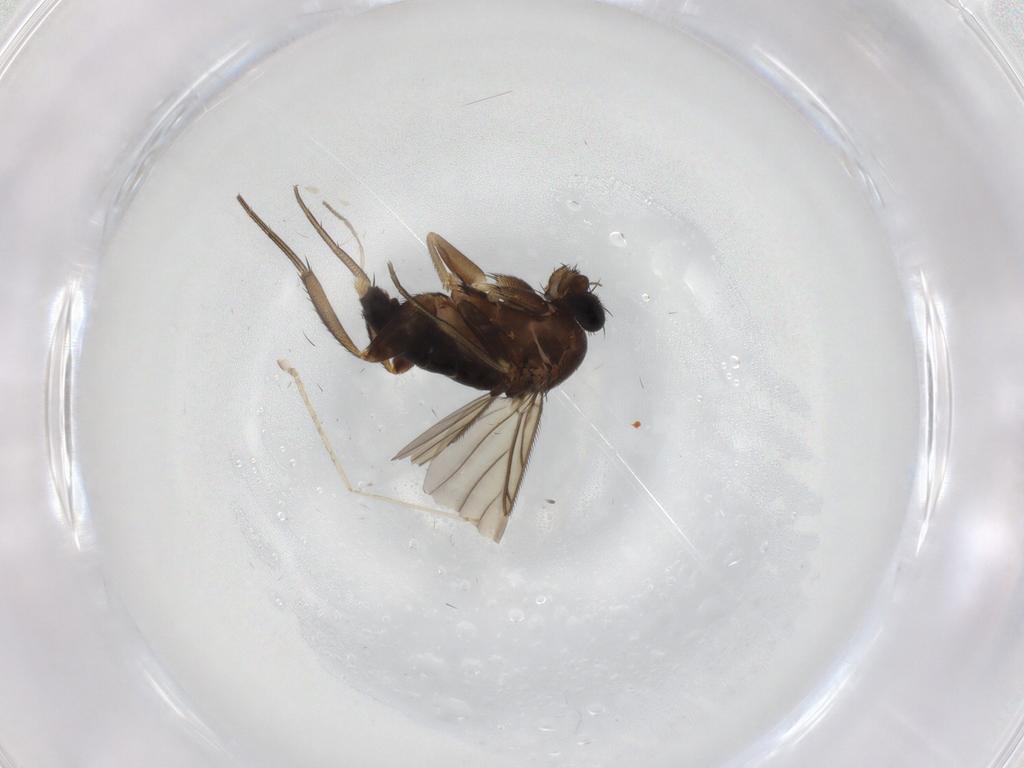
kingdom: Animalia
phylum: Arthropoda
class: Insecta
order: Diptera
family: Phoridae
